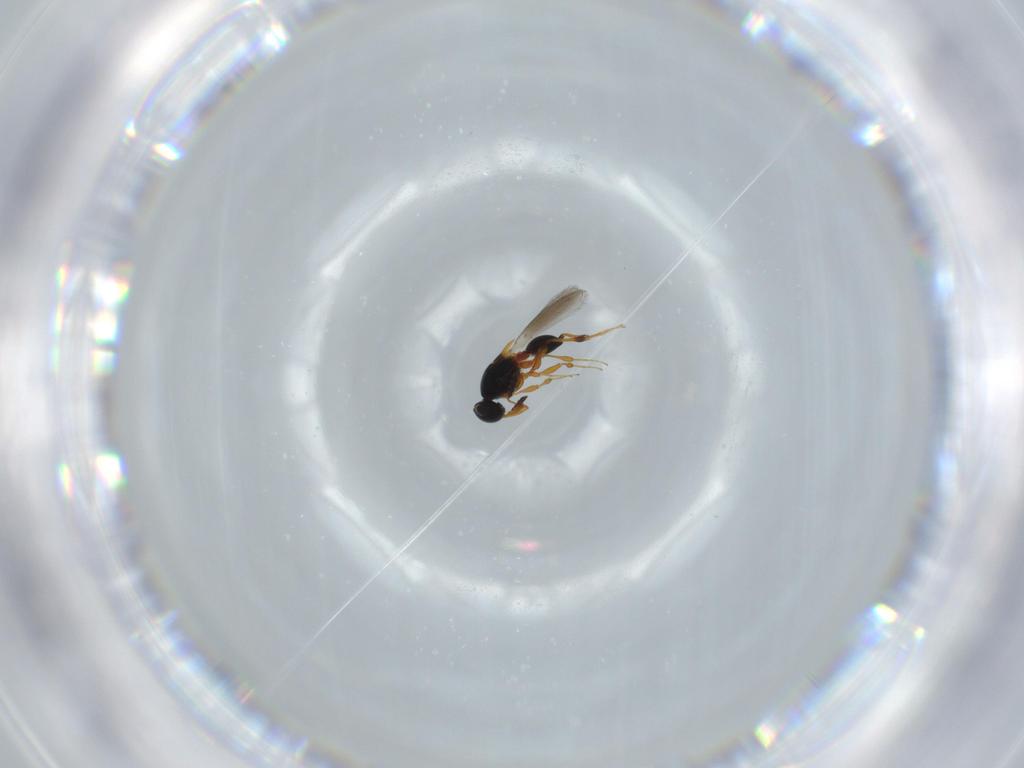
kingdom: Animalia
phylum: Arthropoda
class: Insecta
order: Hymenoptera
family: Platygastridae
